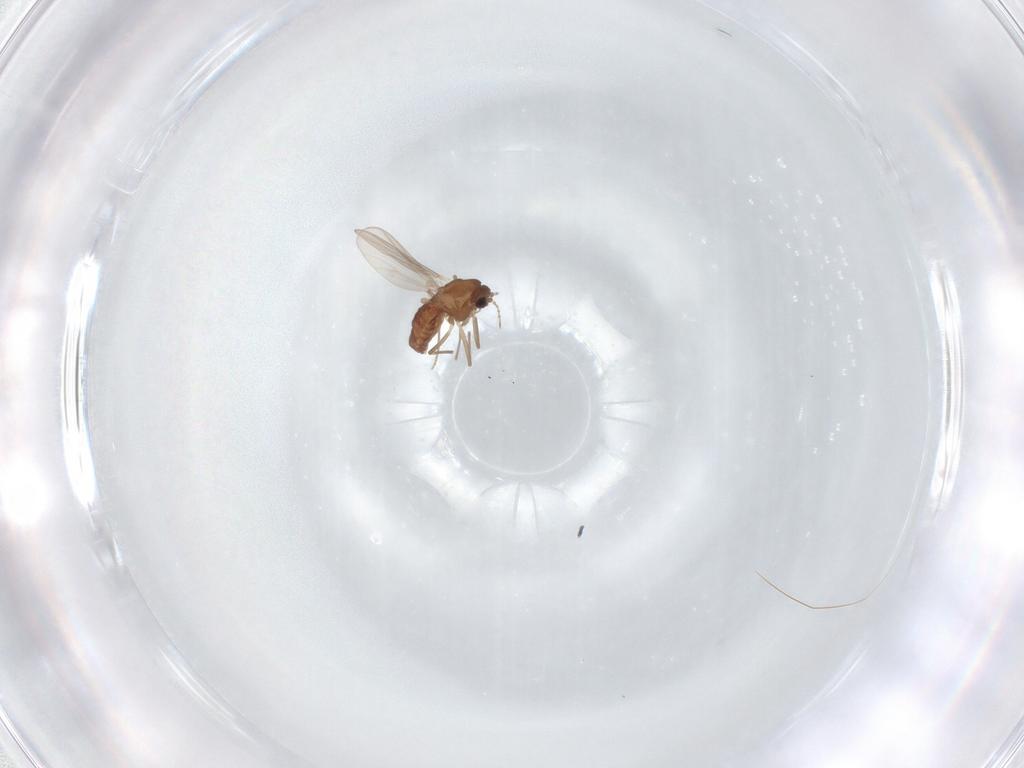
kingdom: Animalia
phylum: Arthropoda
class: Insecta
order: Diptera
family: Chironomidae
